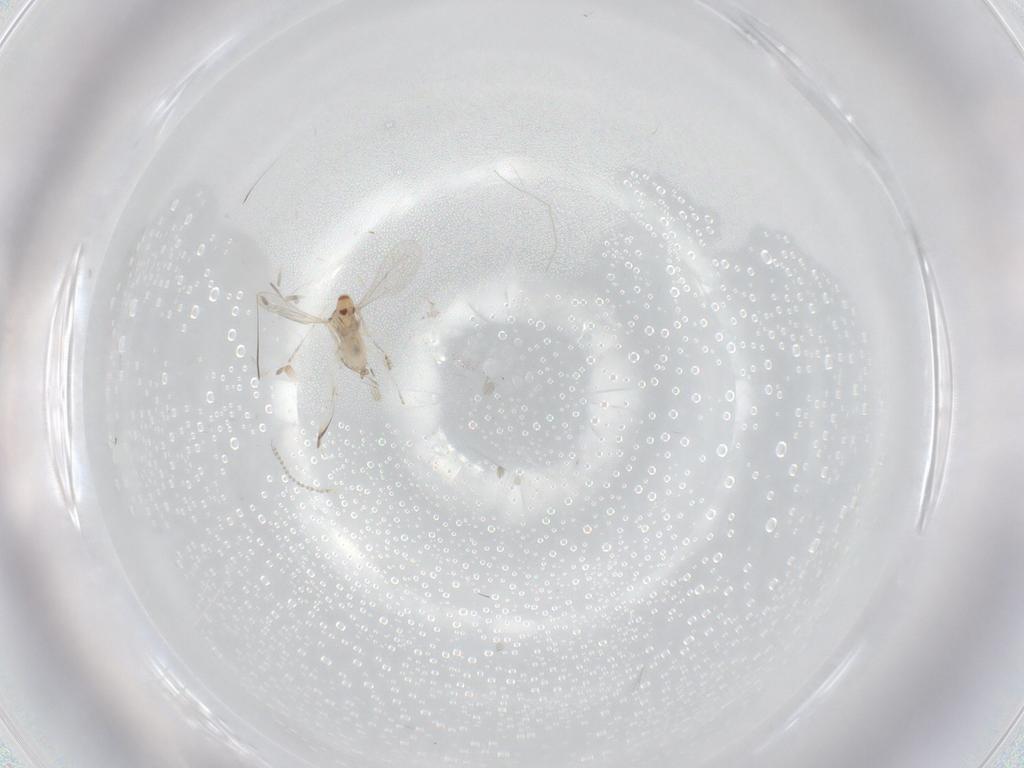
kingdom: Animalia
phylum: Arthropoda
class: Insecta
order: Diptera
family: Cecidomyiidae
